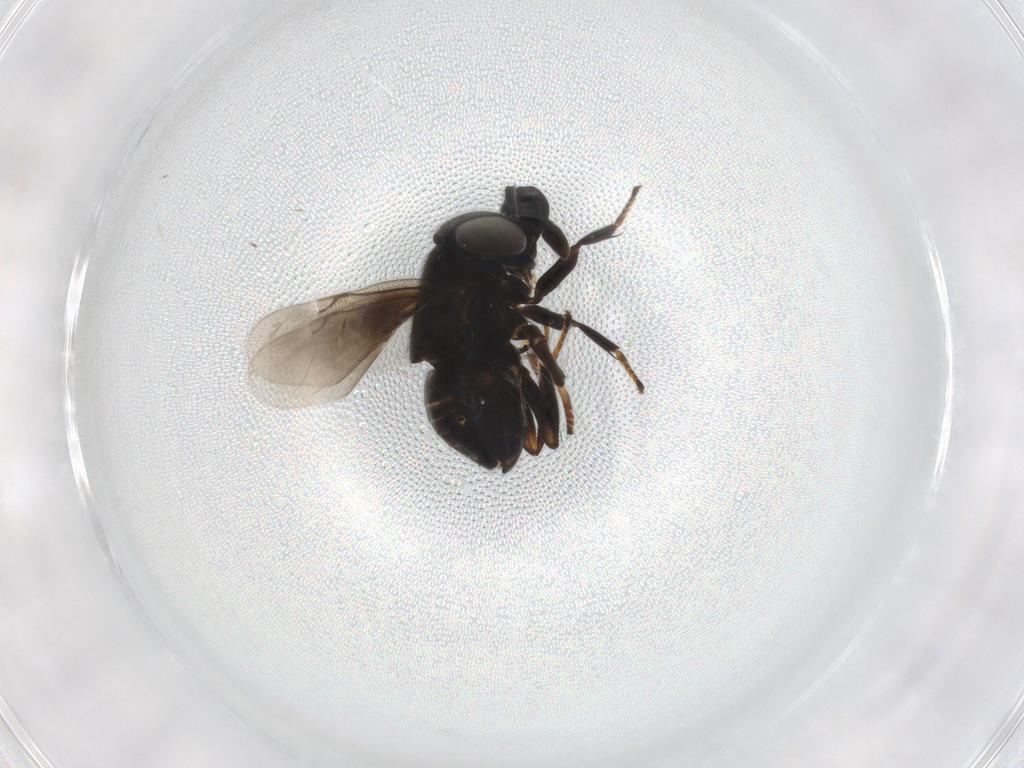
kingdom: Animalia
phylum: Arthropoda
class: Insecta
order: Hymenoptera
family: Encyrtidae
